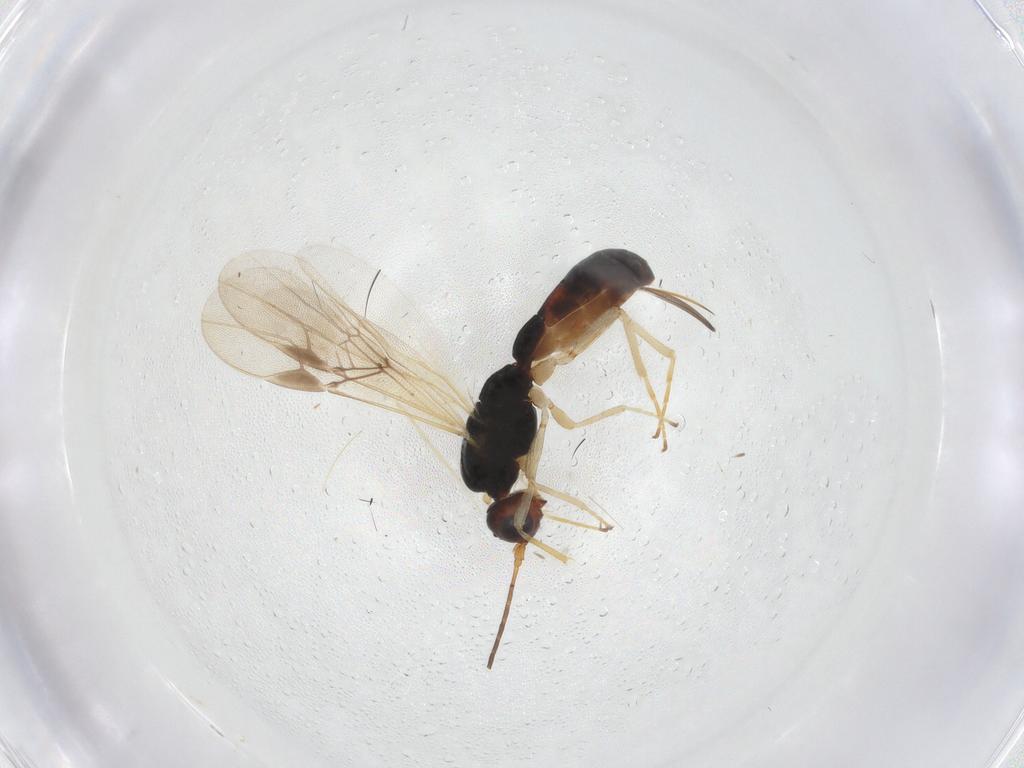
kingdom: Animalia
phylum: Arthropoda
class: Insecta
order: Hymenoptera
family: Braconidae
